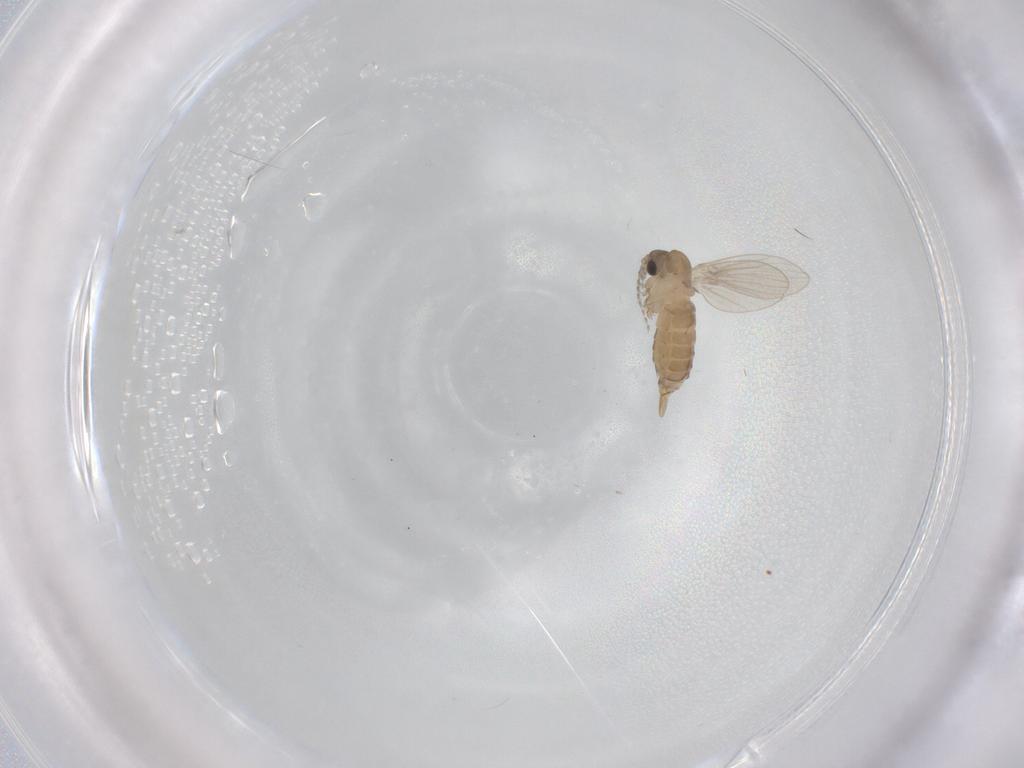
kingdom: Animalia
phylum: Arthropoda
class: Insecta
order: Diptera
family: Psychodidae
